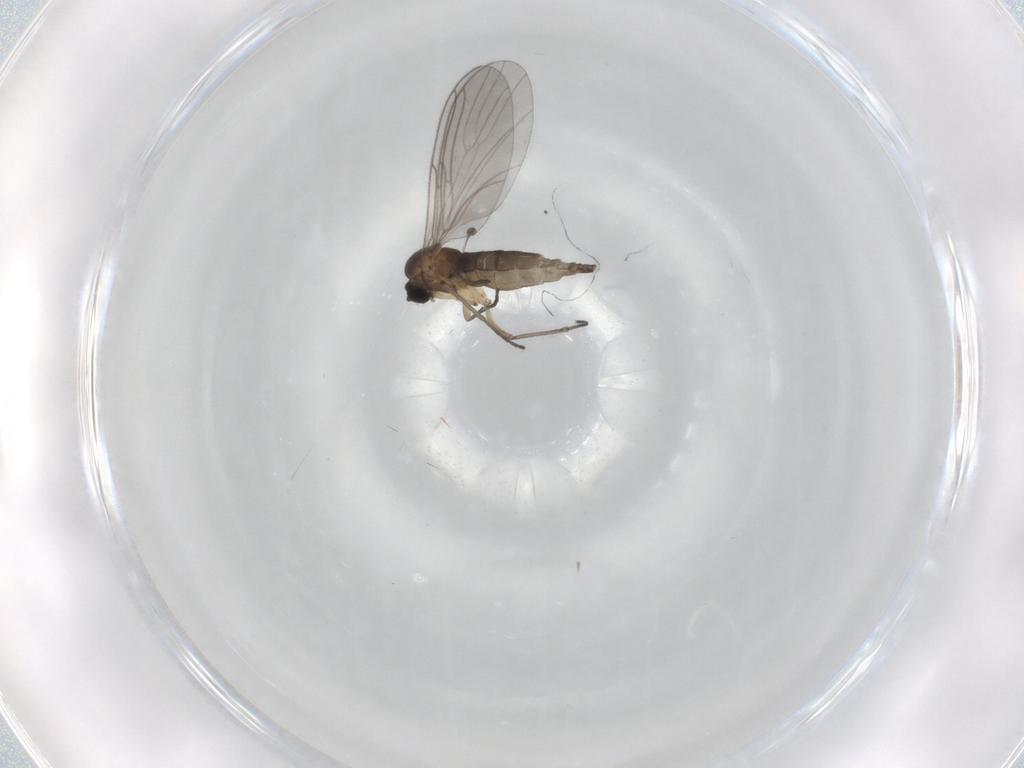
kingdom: Animalia
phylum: Arthropoda
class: Insecta
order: Diptera
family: Sciaridae
